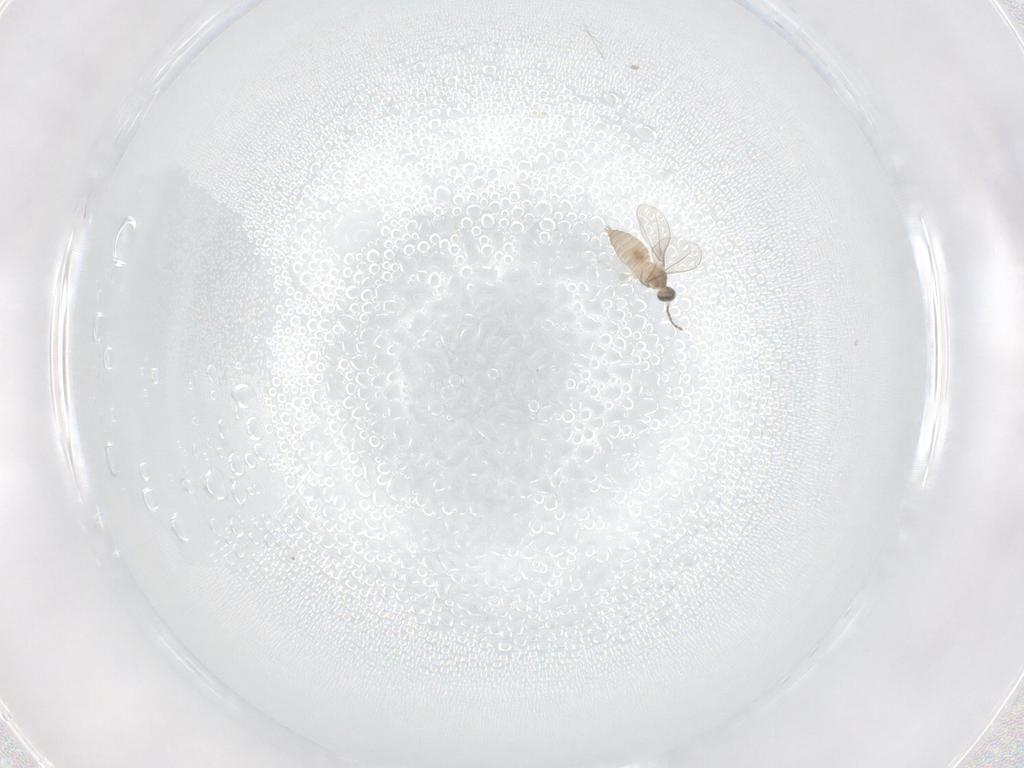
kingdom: Animalia
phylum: Arthropoda
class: Insecta
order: Diptera
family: Cecidomyiidae
